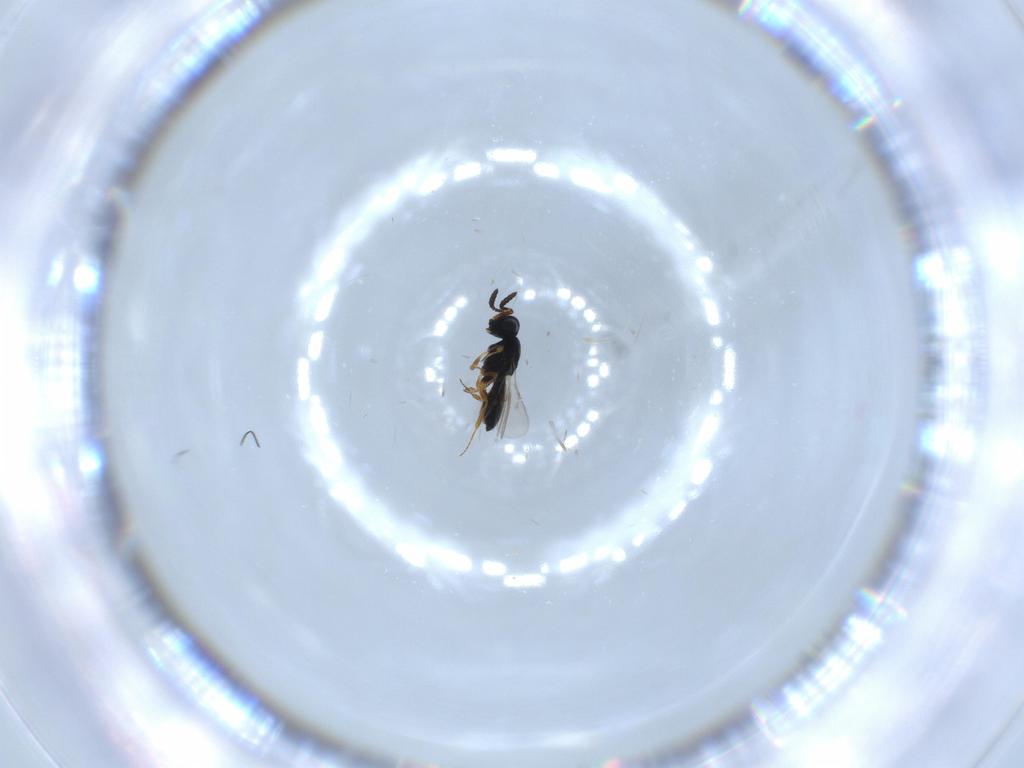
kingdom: Animalia
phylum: Arthropoda
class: Insecta
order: Hymenoptera
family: Scelionidae
